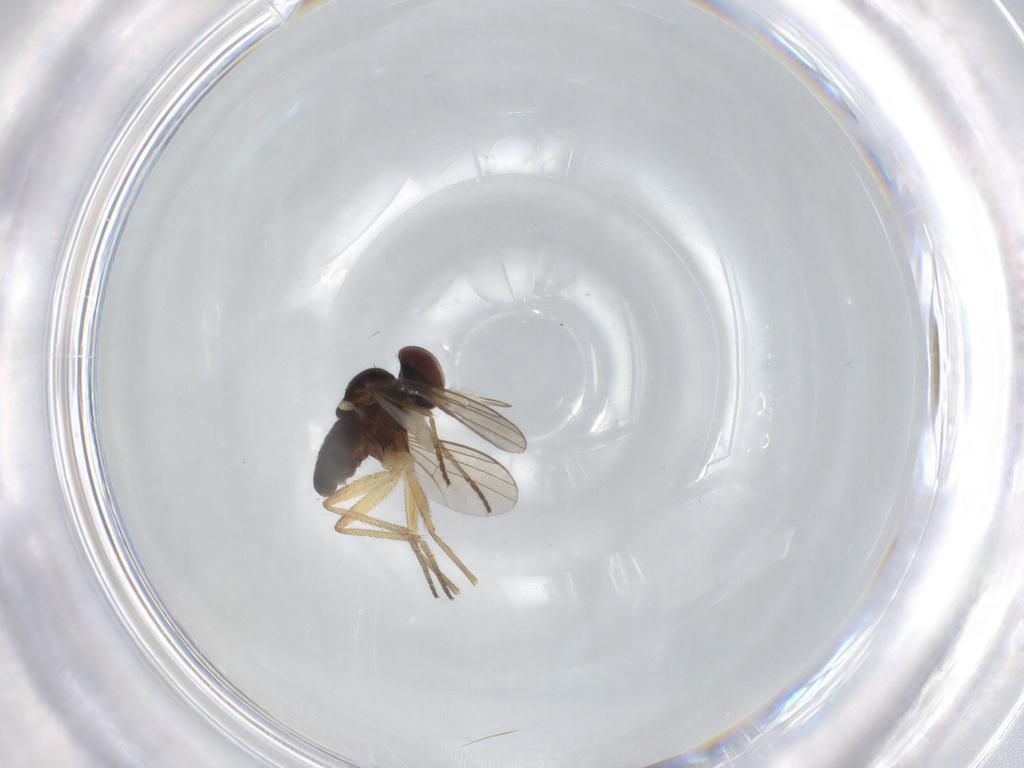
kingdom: Animalia
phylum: Arthropoda
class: Insecta
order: Diptera
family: Dolichopodidae
